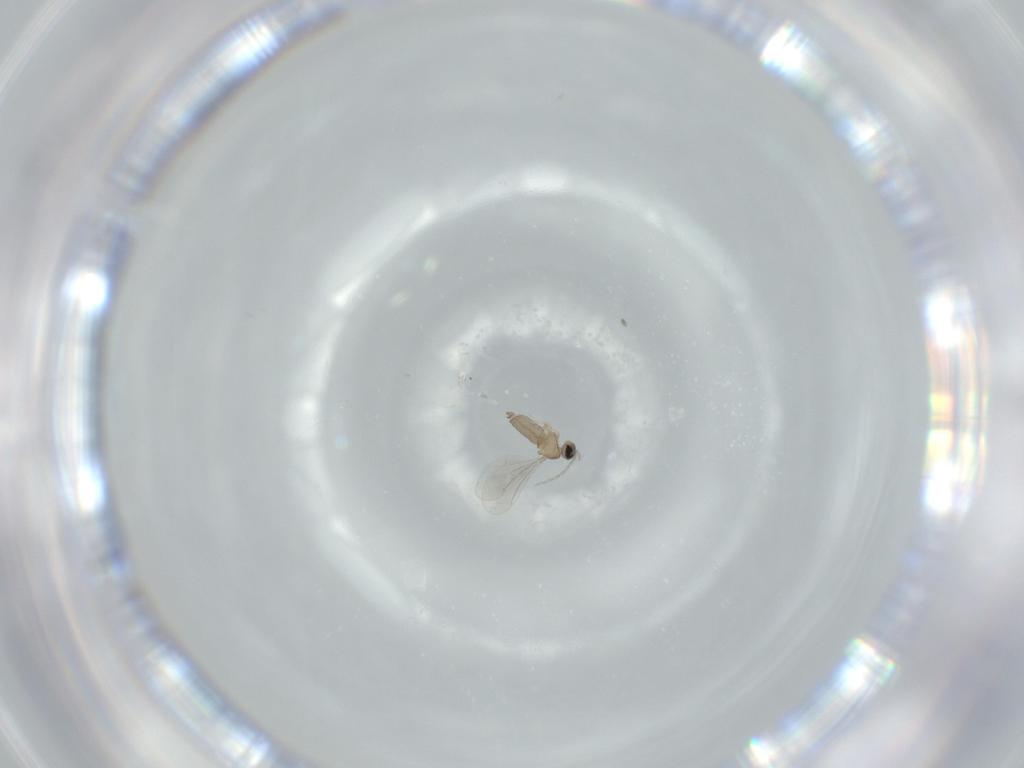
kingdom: Animalia
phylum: Arthropoda
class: Insecta
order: Diptera
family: Cecidomyiidae
